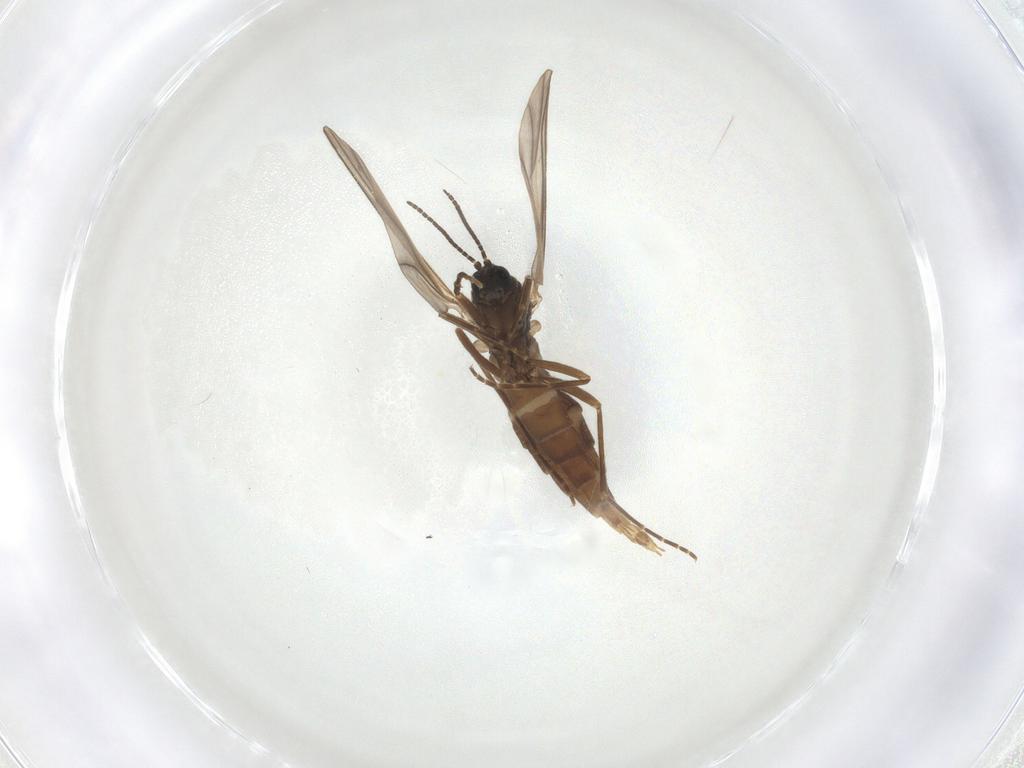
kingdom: Animalia
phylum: Arthropoda
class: Insecta
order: Diptera
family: Sciaridae
